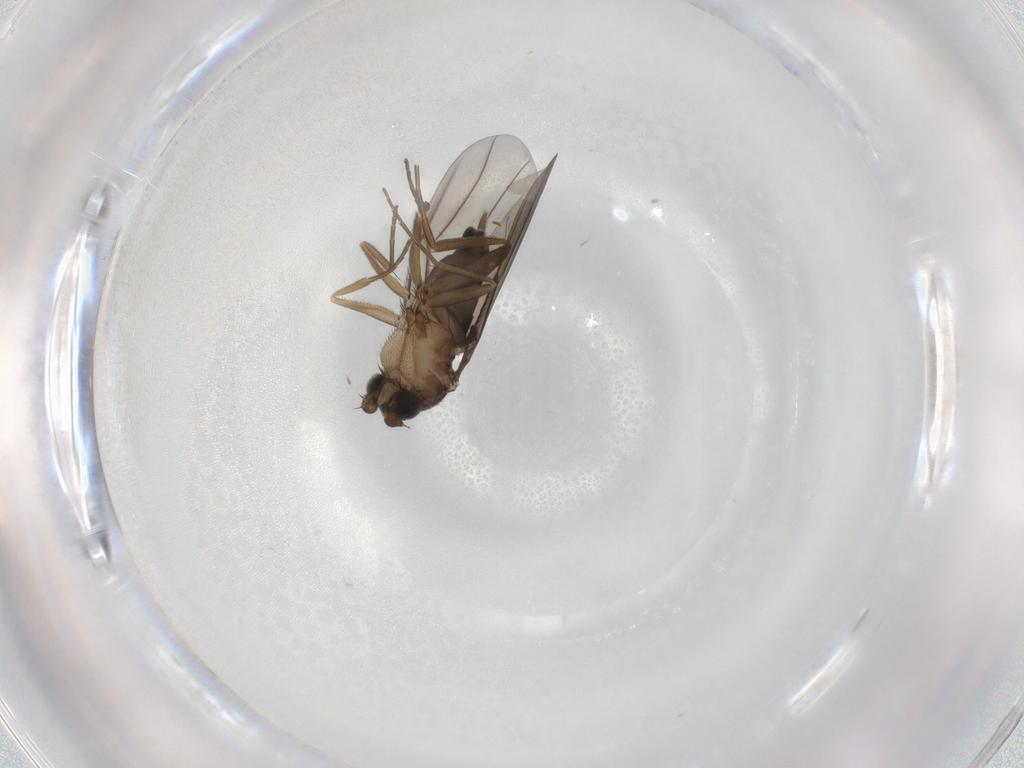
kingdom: Animalia
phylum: Arthropoda
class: Insecta
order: Diptera
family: Phoridae
